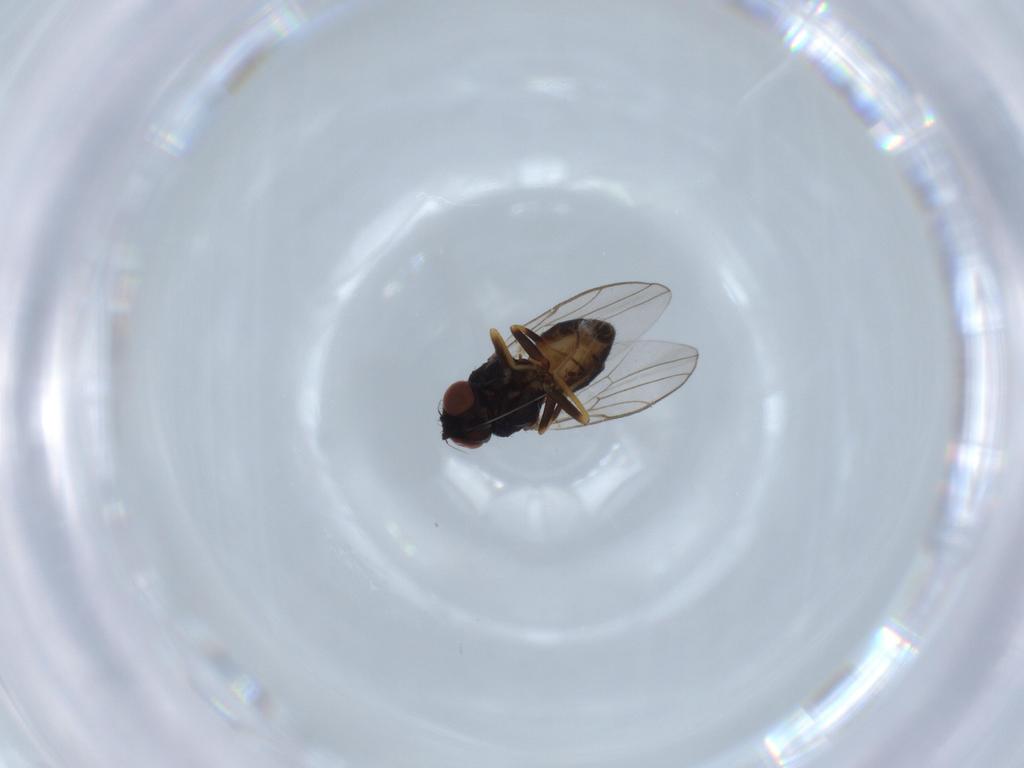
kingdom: Animalia
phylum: Arthropoda
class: Insecta
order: Diptera
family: Chloropidae
